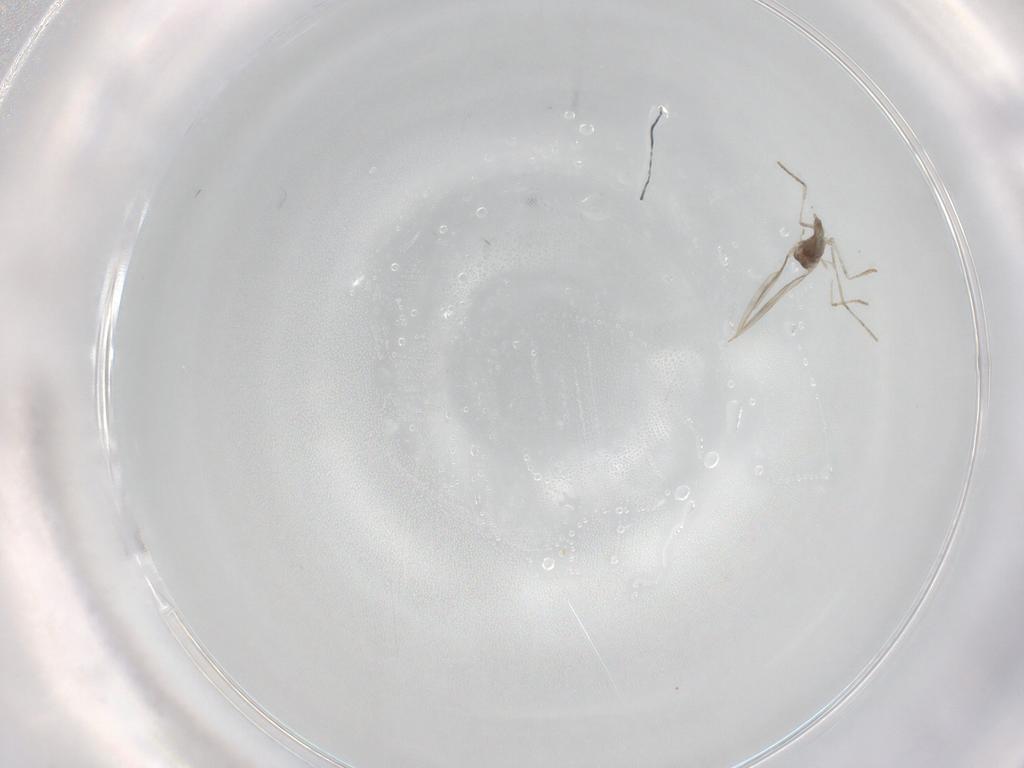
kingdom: Animalia
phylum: Arthropoda
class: Insecta
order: Diptera
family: Cecidomyiidae
